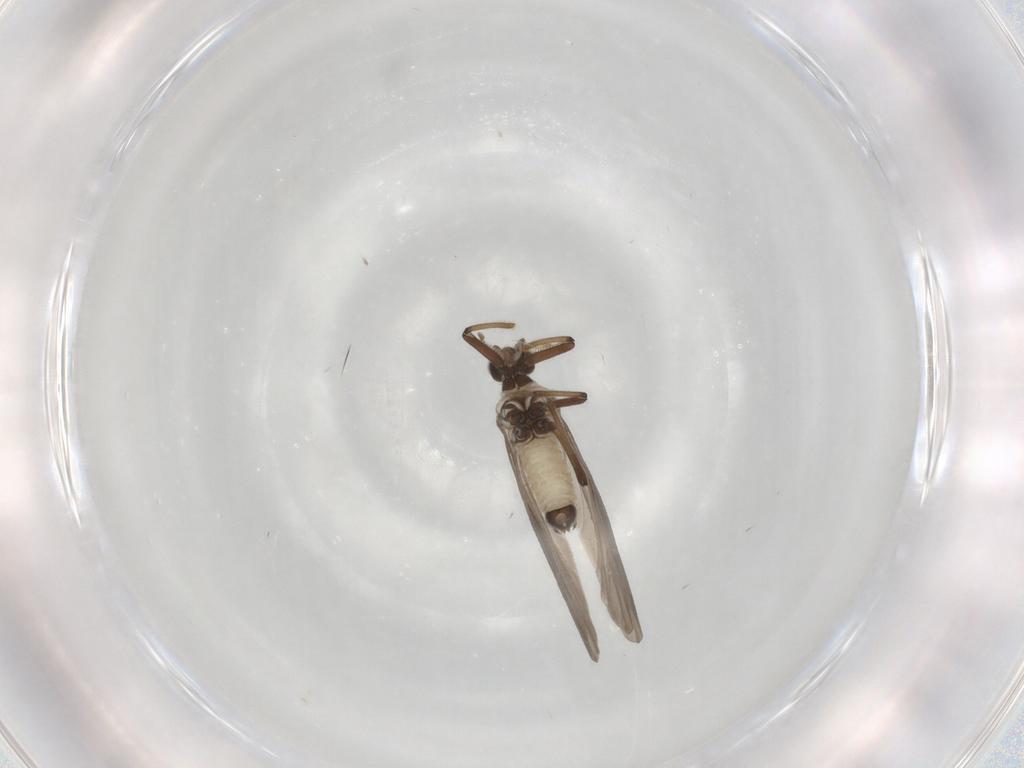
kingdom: Animalia
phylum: Arthropoda
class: Insecta
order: Neuroptera
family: Coniopterygidae
